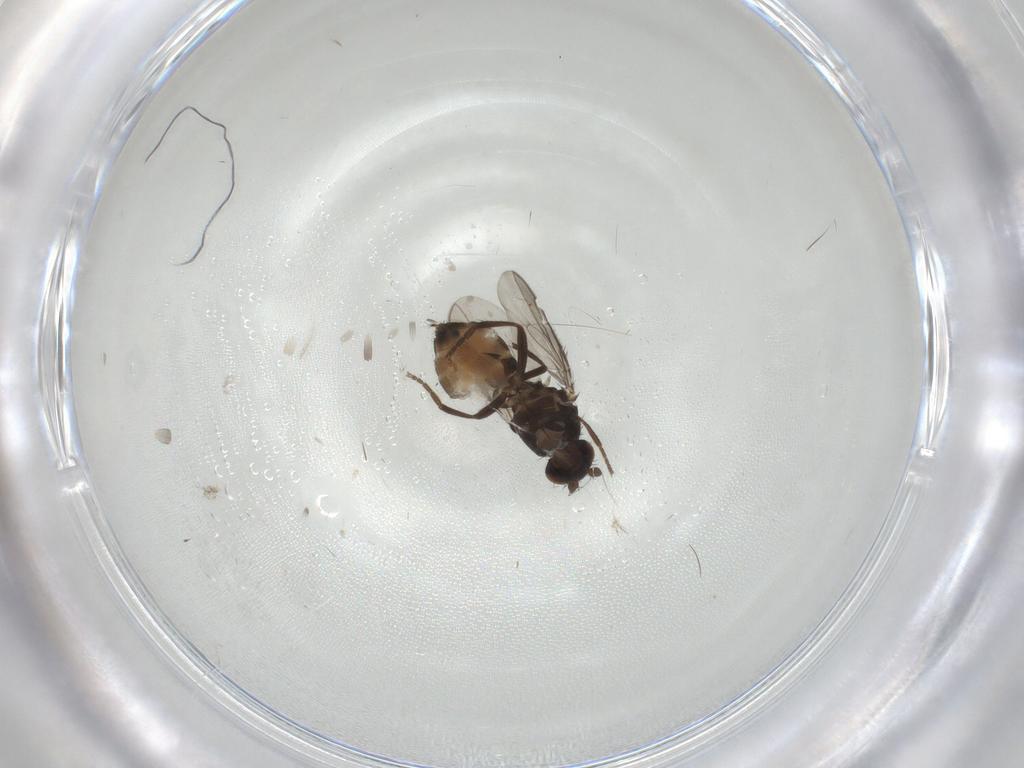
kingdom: Animalia
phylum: Arthropoda
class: Insecta
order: Diptera
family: Sphaeroceridae
